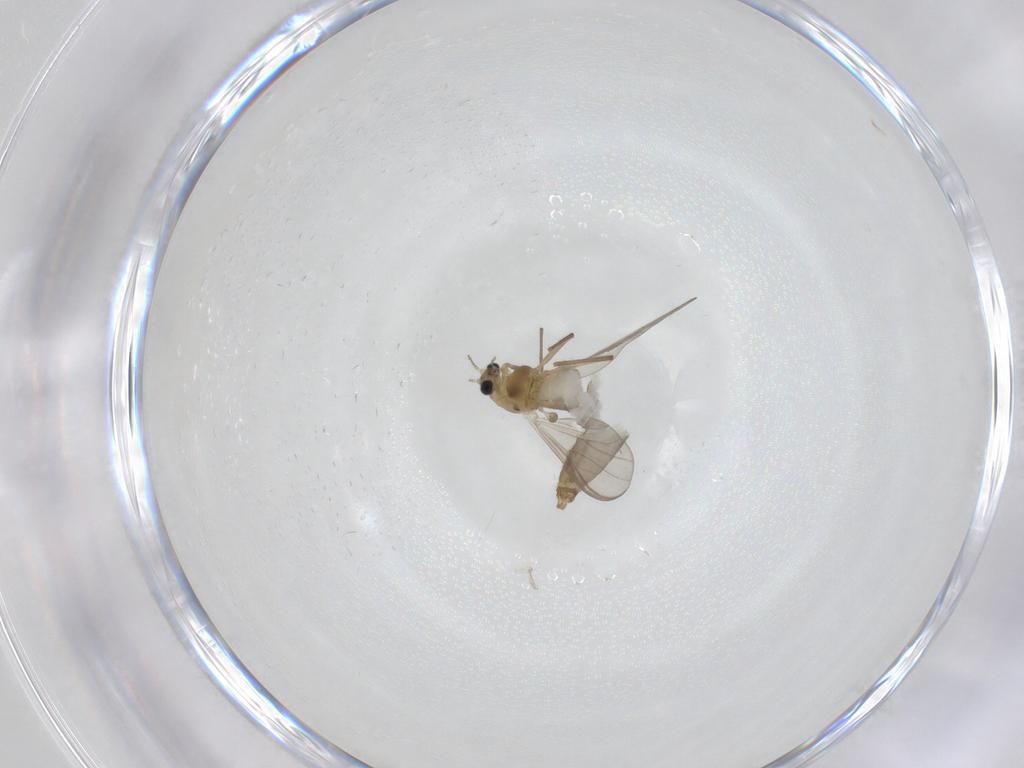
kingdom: Animalia
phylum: Arthropoda
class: Insecta
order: Diptera
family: Chironomidae
